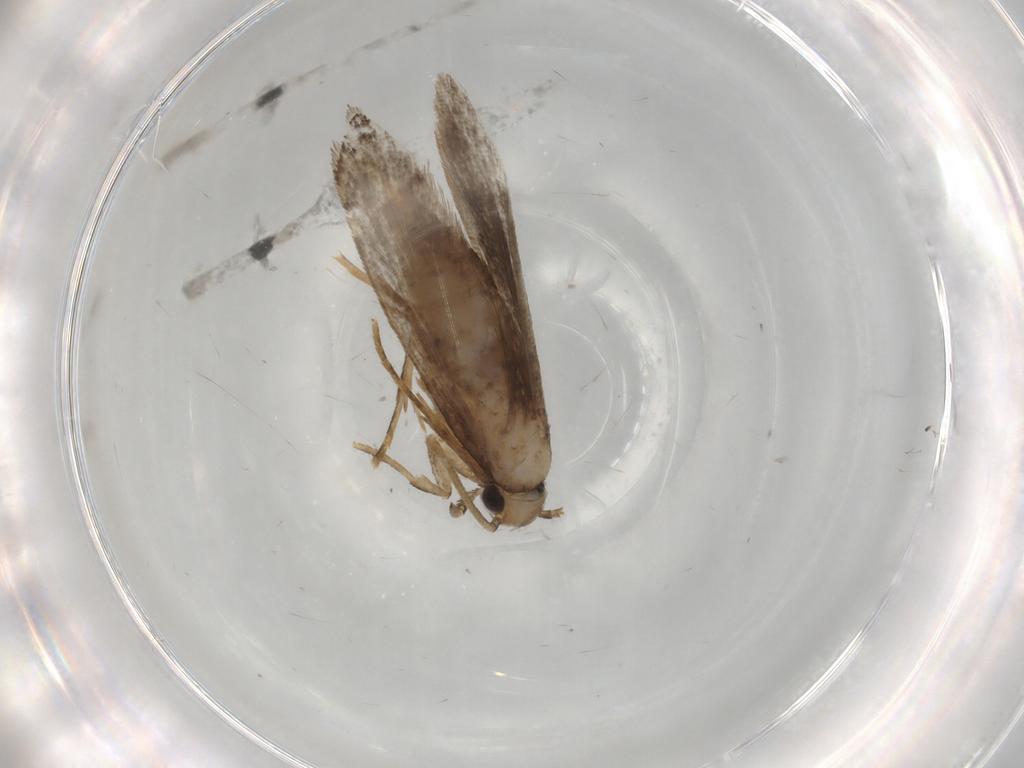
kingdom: Animalia
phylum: Arthropoda
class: Insecta
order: Lepidoptera
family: Tineidae
